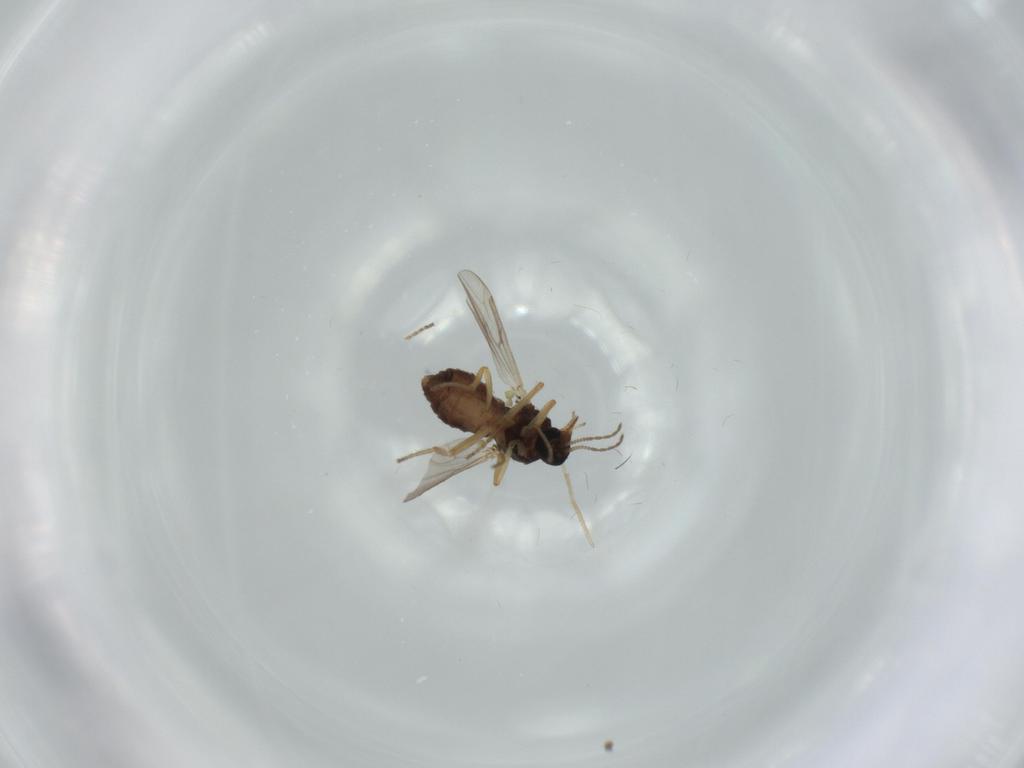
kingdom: Animalia
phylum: Arthropoda
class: Insecta
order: Diptera
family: Ceratopogonidae
